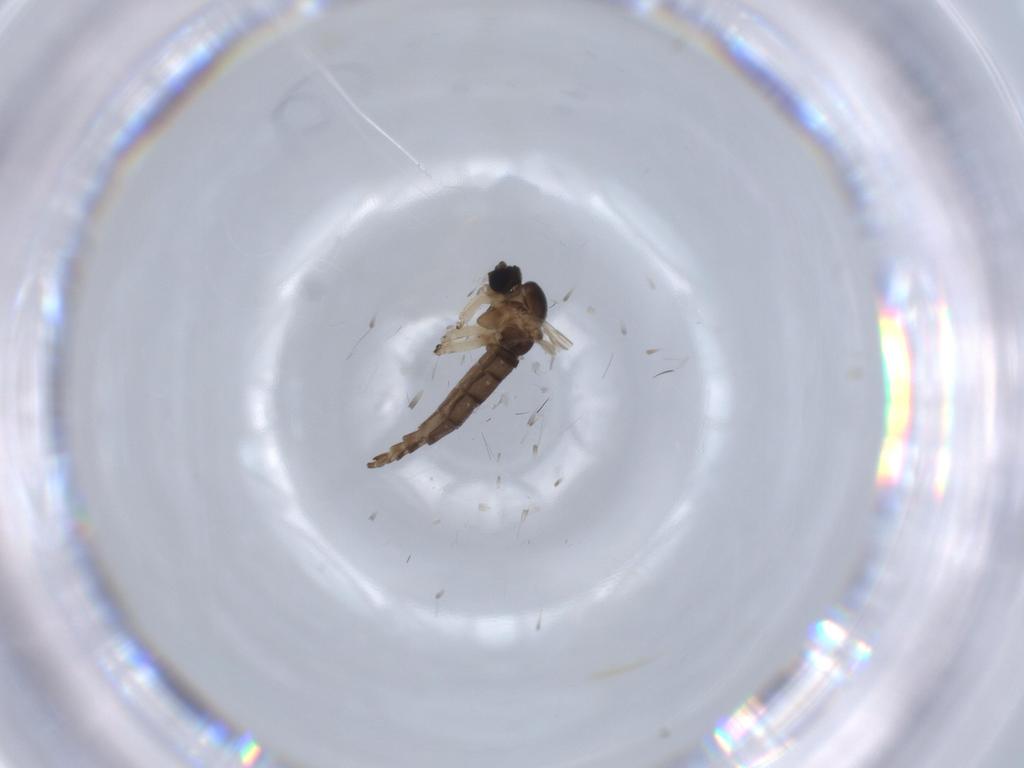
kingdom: Animalia
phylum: Arthropoda
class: Insecta
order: Diptera
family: Sciaridae
